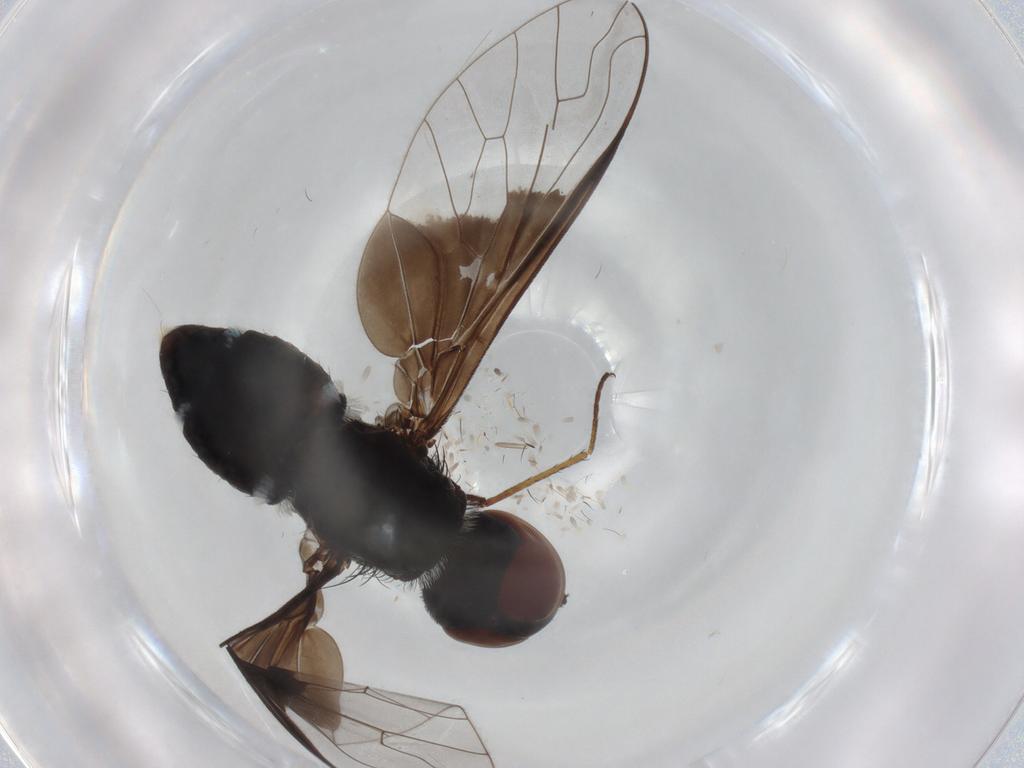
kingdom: Animalia
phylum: Arthropoda
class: Insecta
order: Diptera
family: Bombyliidae
